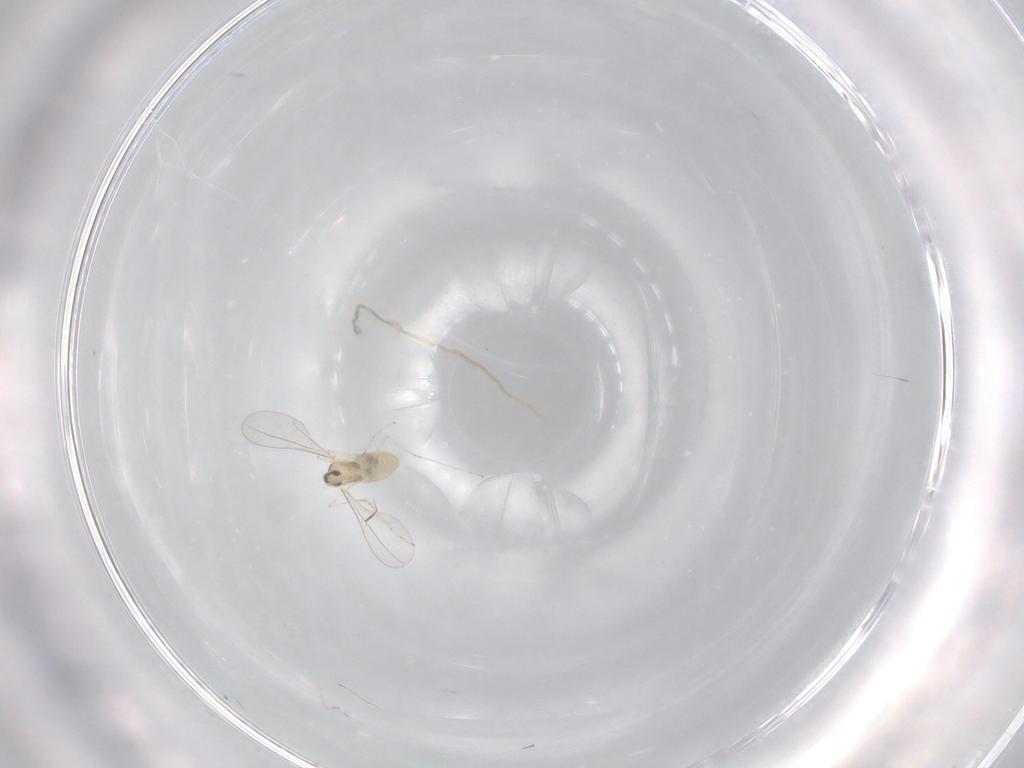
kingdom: Animalia
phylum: Arthropoda
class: Insecta
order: Diptera
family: Cecidomyiidae
